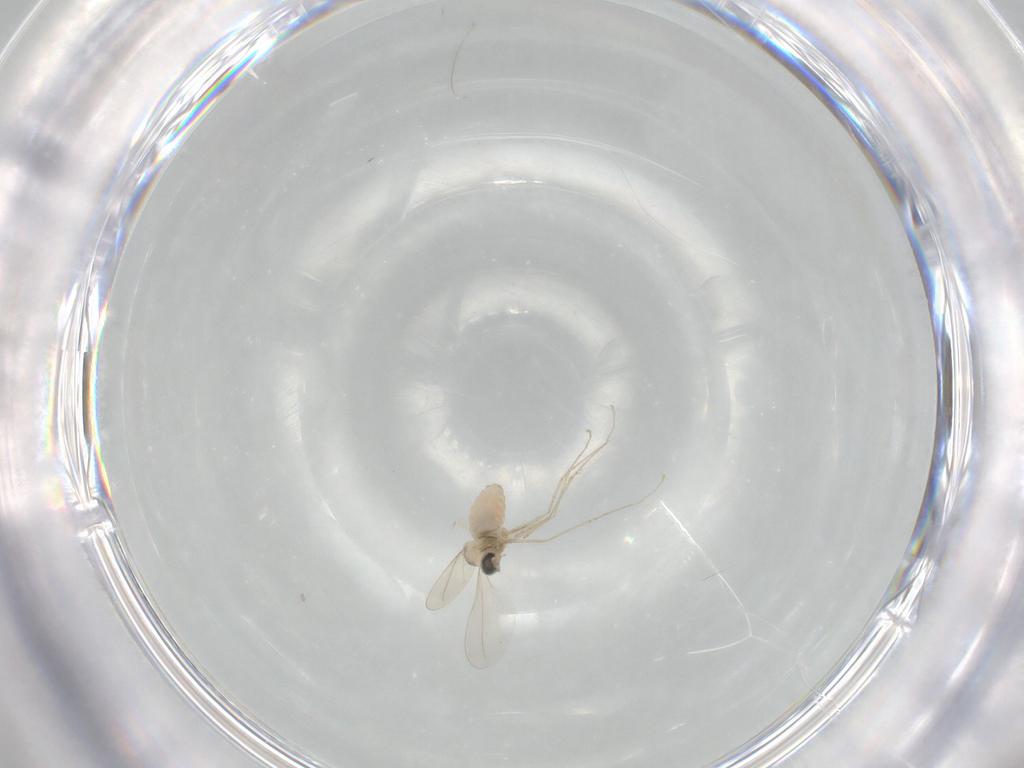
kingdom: Animalia
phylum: Arthropoda
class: Insecta
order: Diptera
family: Cecidomyiidae
